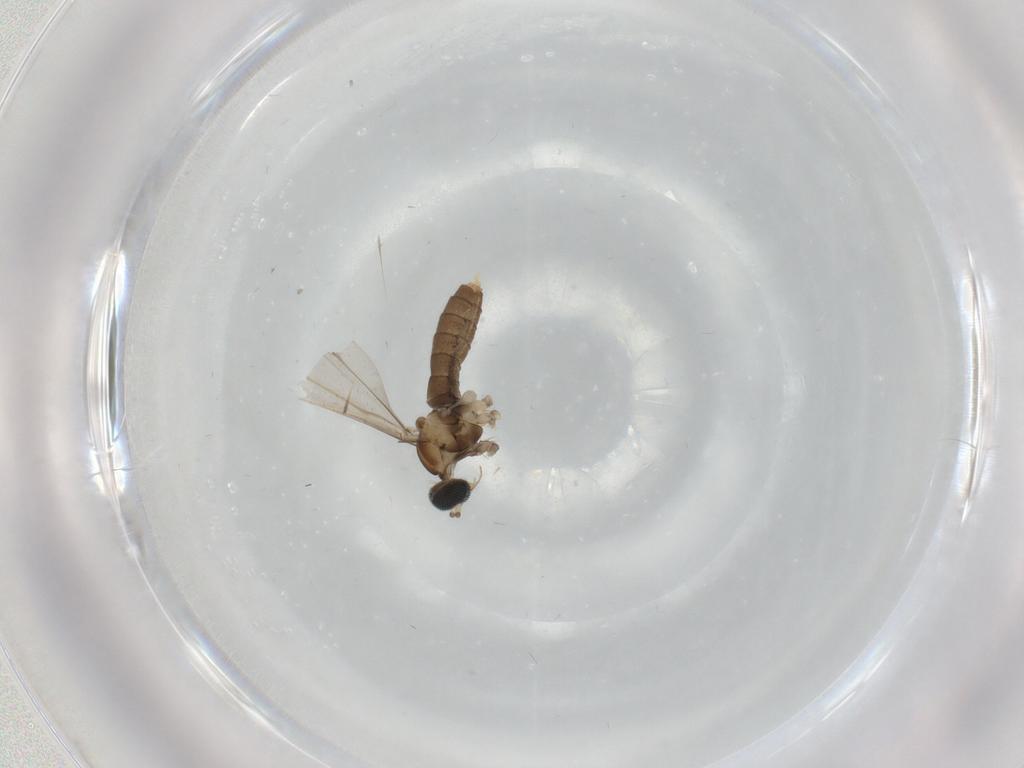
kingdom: Animalia
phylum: Arthropoda
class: Insecta
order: Diptera
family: Cecidomyiidae
